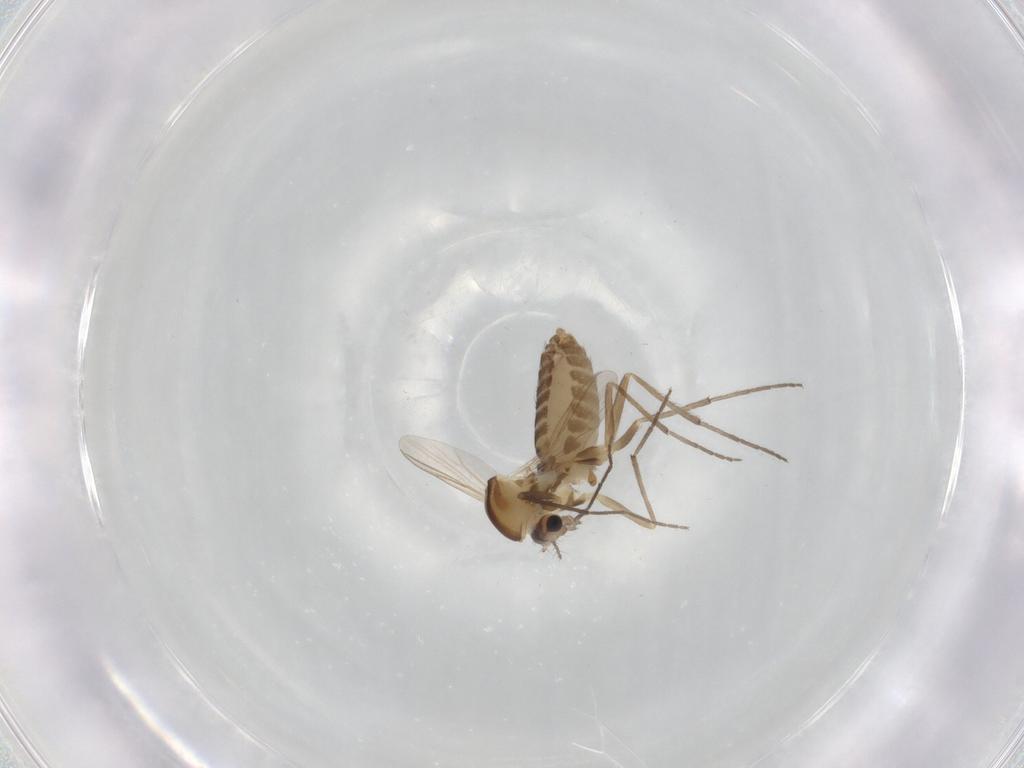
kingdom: Animalia
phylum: Arthropoda
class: Insecta
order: Diptera
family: Chironomidae
